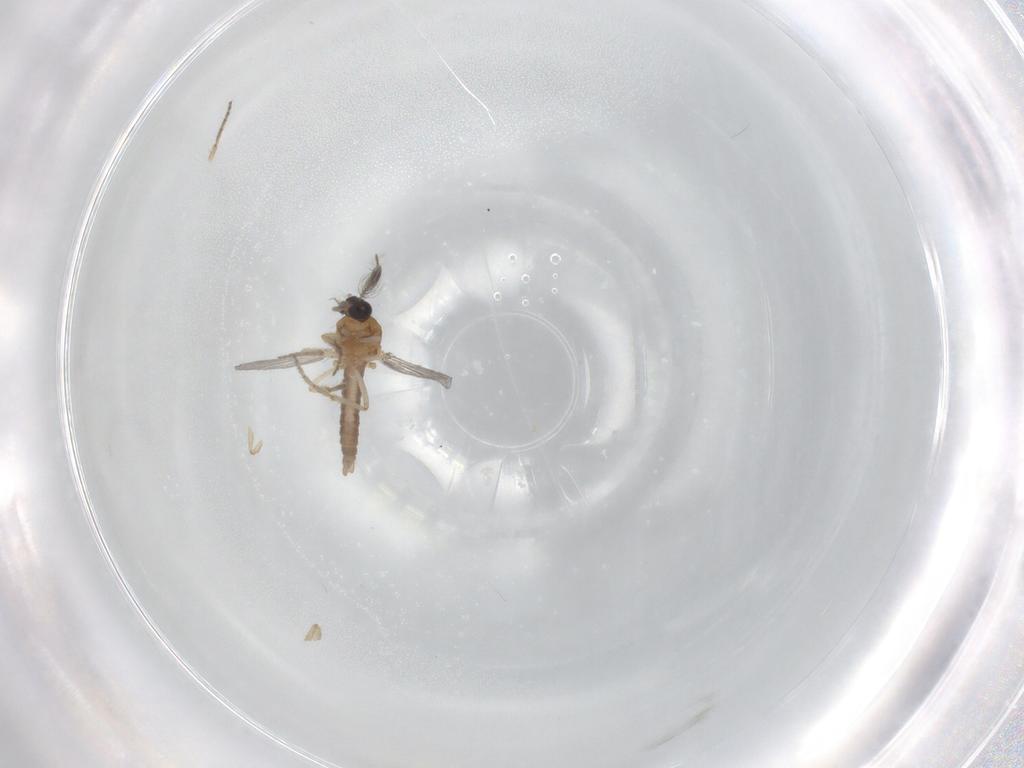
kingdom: Animalia
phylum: Arthropoda
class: Insecta
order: Diptera
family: Ceratopogonidae
